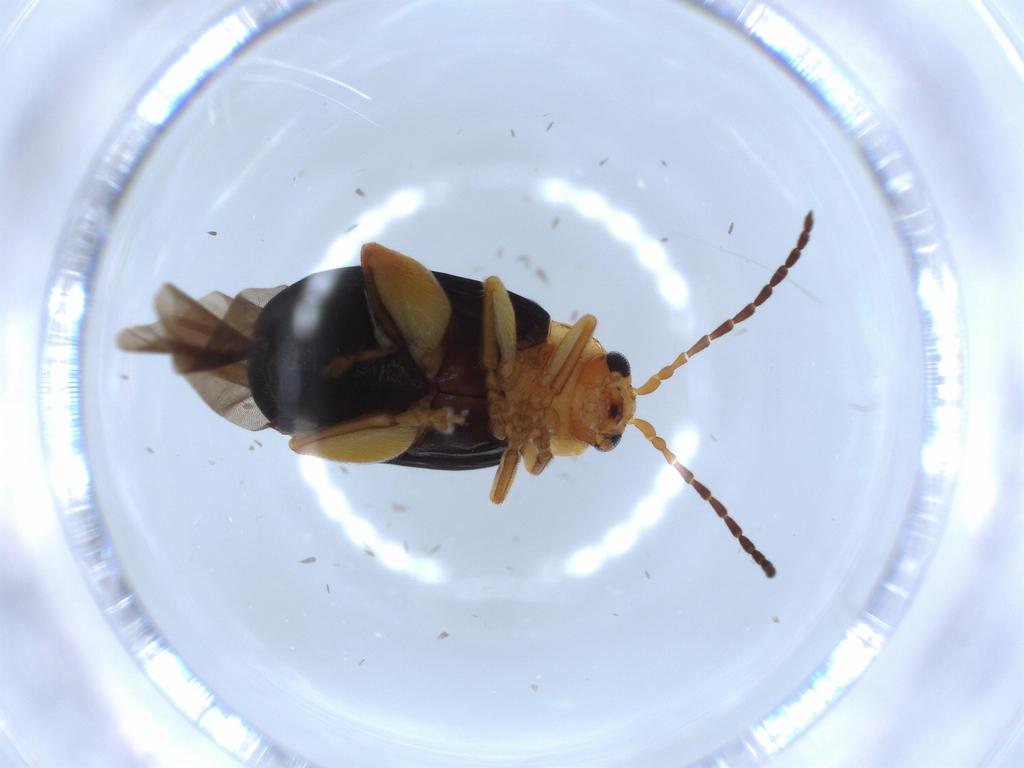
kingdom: Animalia
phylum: Arthropoda
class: Insecta
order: Coleoptera
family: Chrysomelidae
